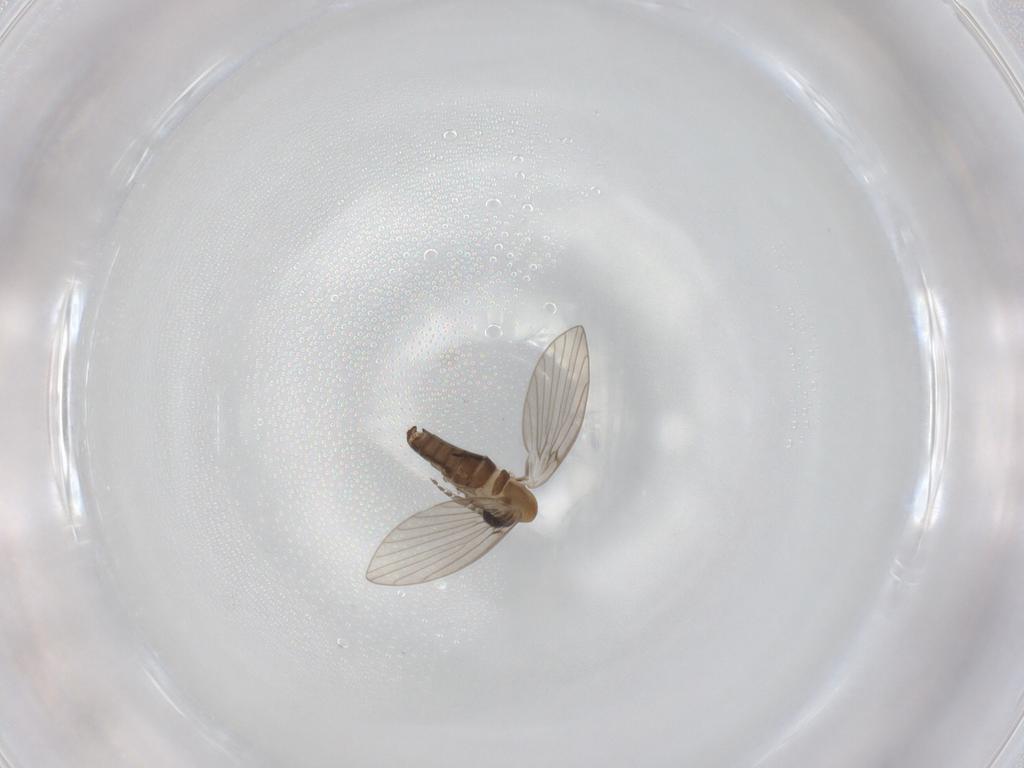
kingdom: Animalia
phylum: Arthropoda
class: Insecta
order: Diptera
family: Psychodidae
